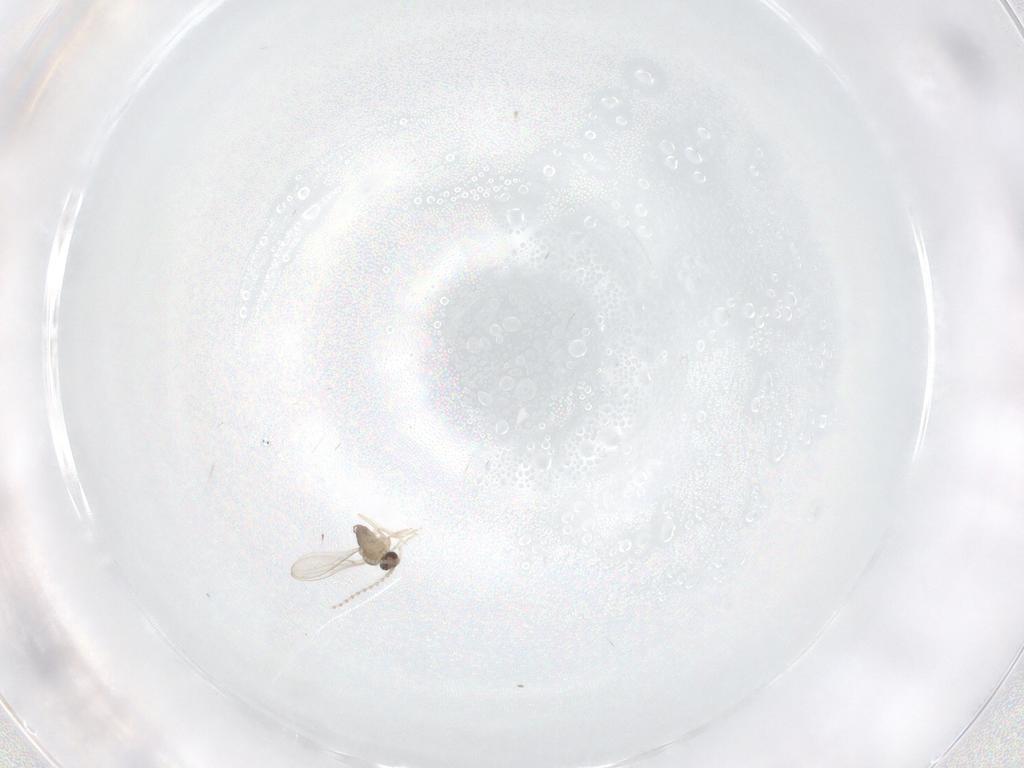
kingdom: Animalia
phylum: Arthropoda
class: Insecta
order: Diptera
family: Cecidomyiidae
